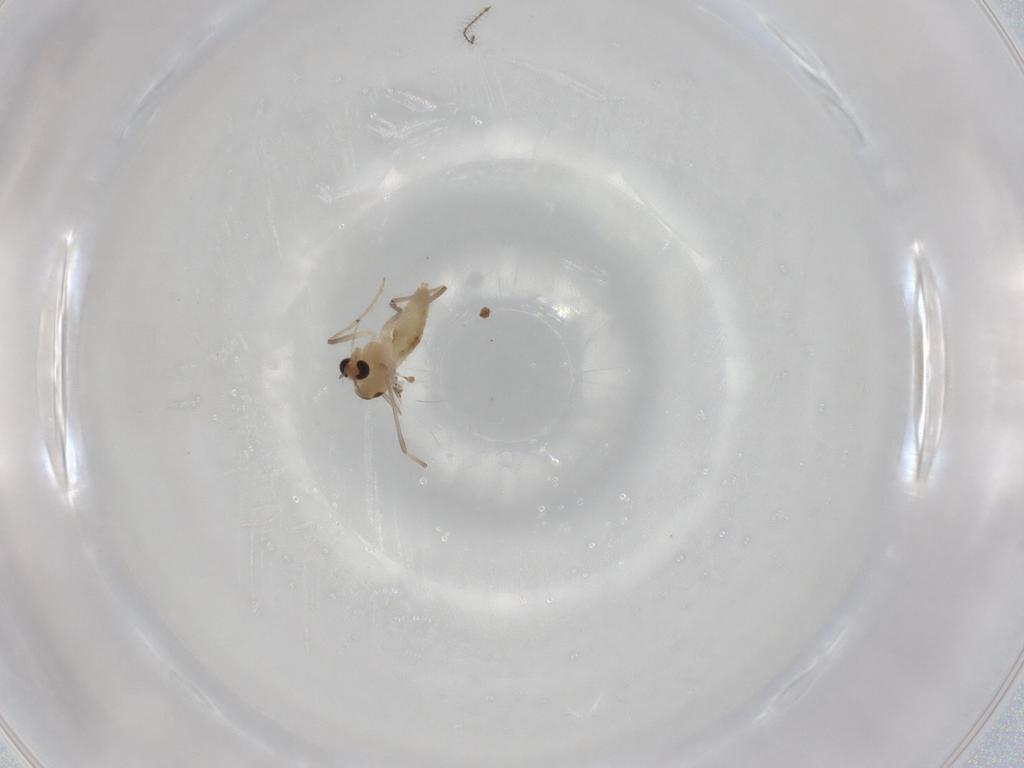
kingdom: Animalia
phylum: Arthropoda
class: Insecta
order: Diptera
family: Chironomidae
